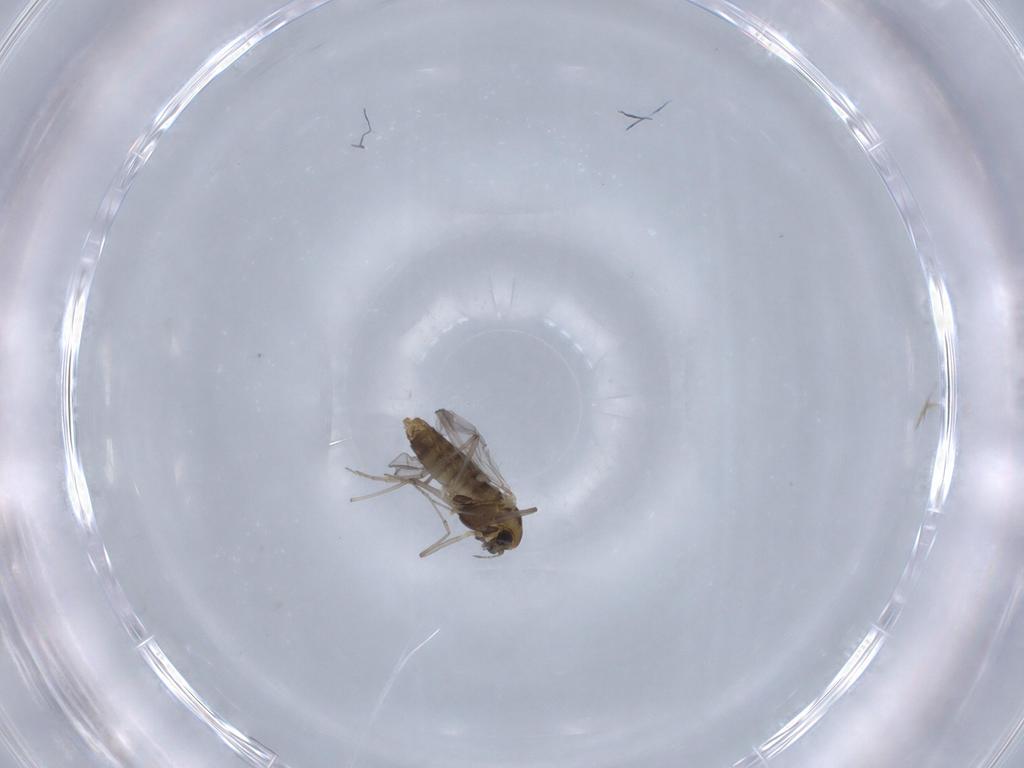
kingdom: Animalia
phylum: Arthropoda
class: Insecta
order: Diptera
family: Chironomidae
